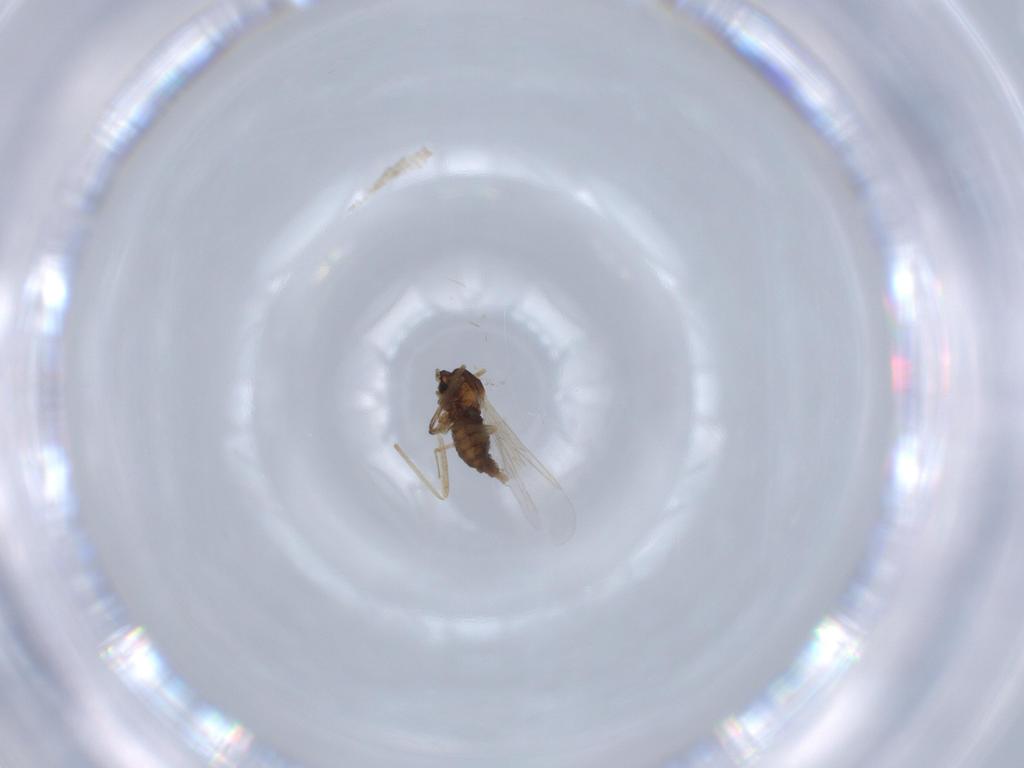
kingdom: Animalia
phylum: Arthropoda
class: Insecta
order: Diptera
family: Cecidomyiidae
